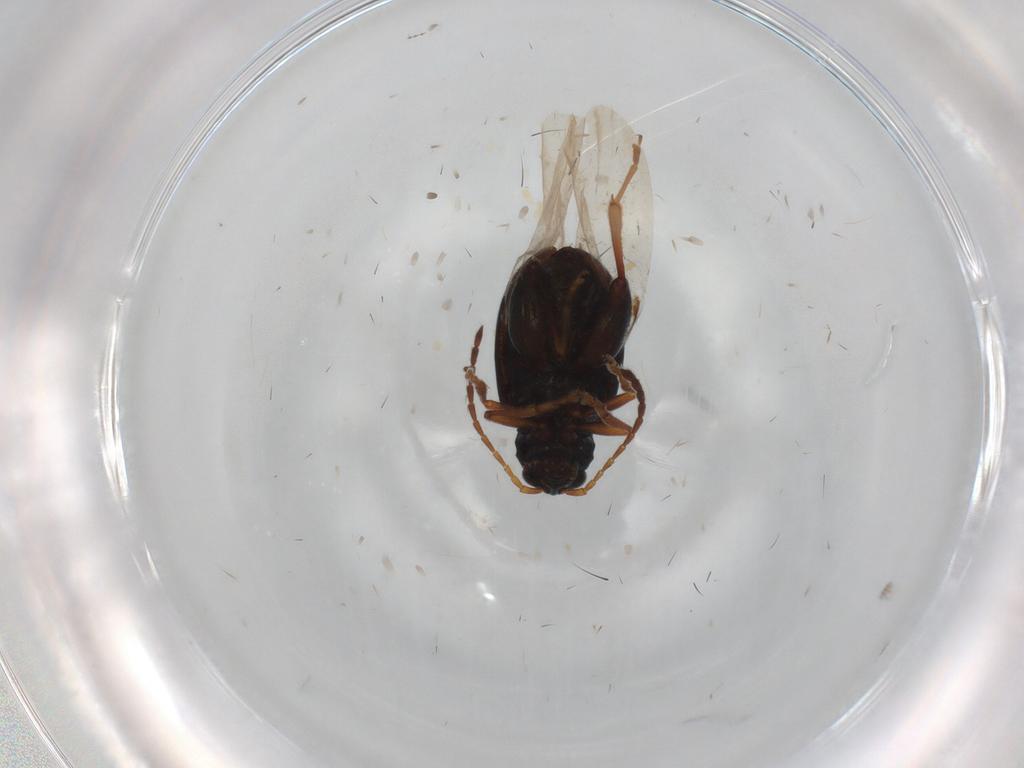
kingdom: Animalia
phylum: Arthropoda
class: Insecta
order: Coleoptera
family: Chrysomelidae
